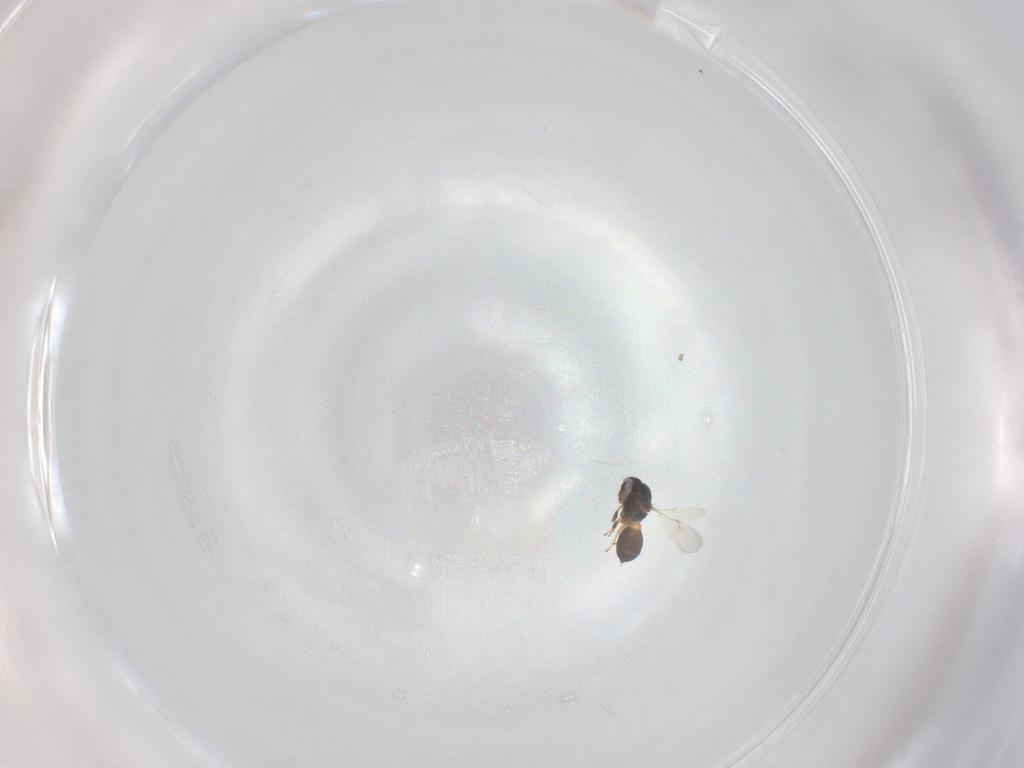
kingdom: Animalia
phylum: Arthropoda
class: Insecta
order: Hymenoptera
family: Scelionidae
